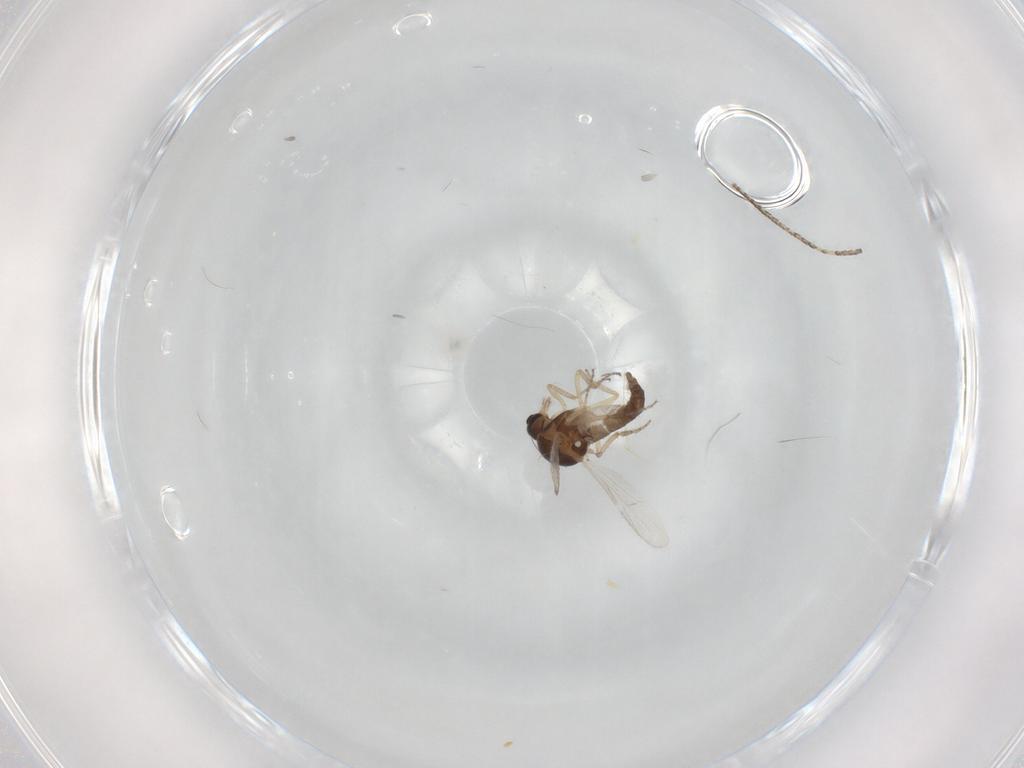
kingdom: Animalia
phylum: Arthropoda
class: Insecta
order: Diptera
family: Ceratopogonidae
